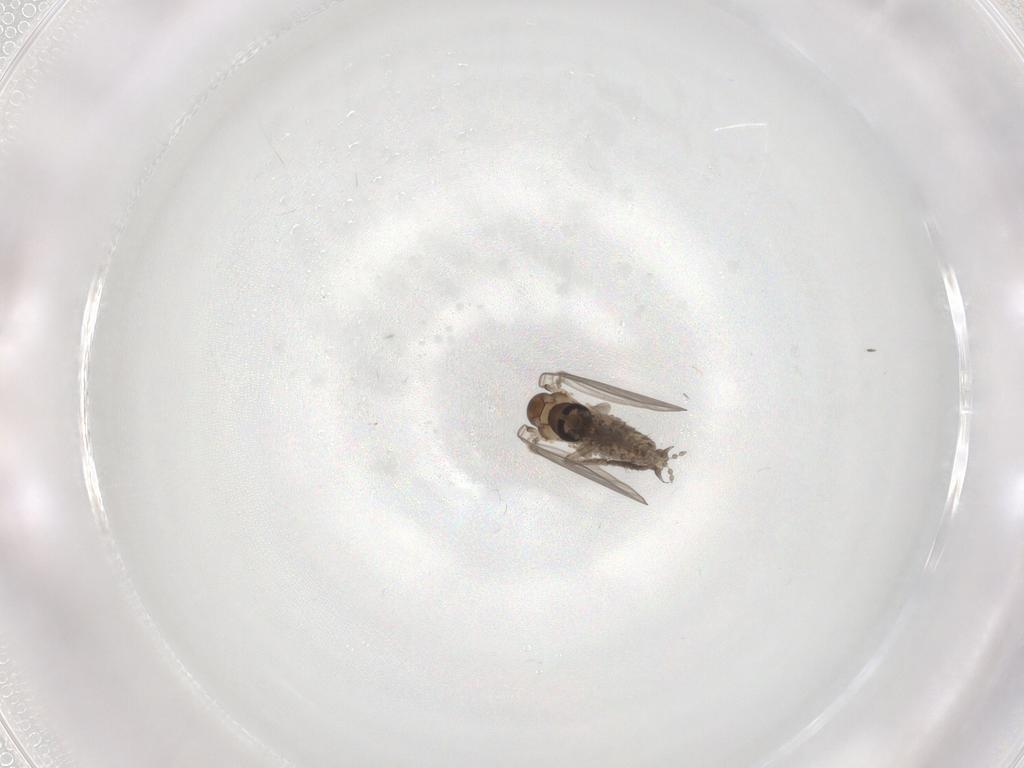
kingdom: Animalia
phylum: Arthropoda
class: Insecta
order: Diptera
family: Psychodidae
